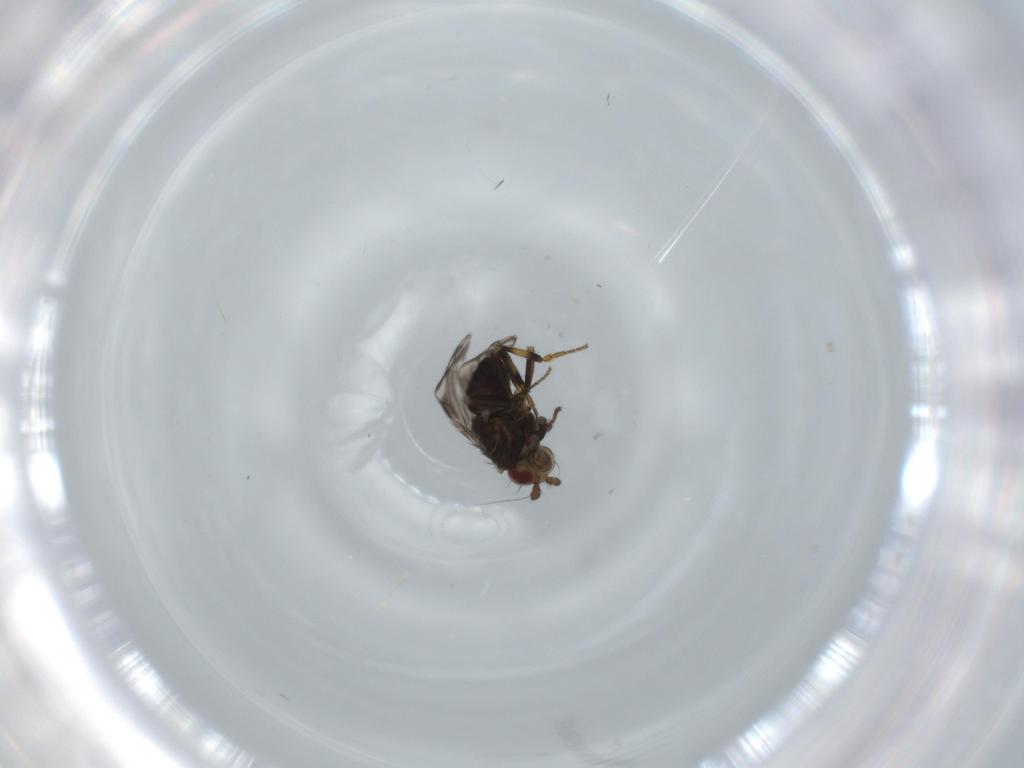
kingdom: Animalia
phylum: Arthropoda
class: Insecta
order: Diptera
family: Sphaeroceridae
